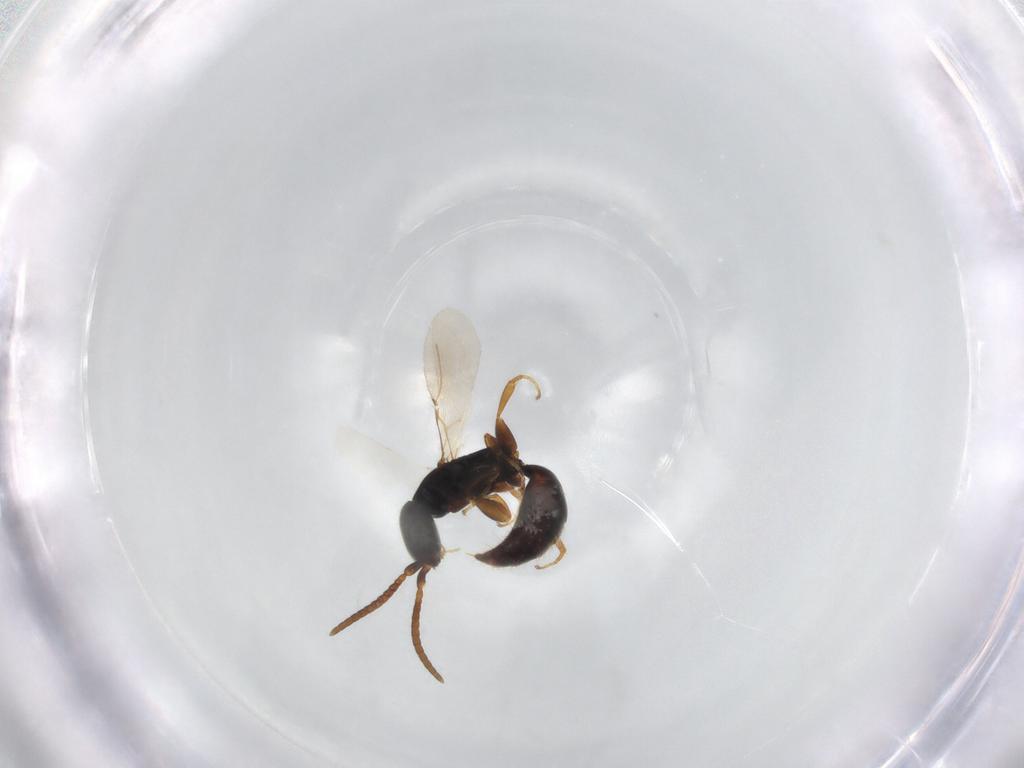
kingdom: Animalia
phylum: Arthropoda
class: Insecta
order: Hymenoptera
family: Bethylidae
